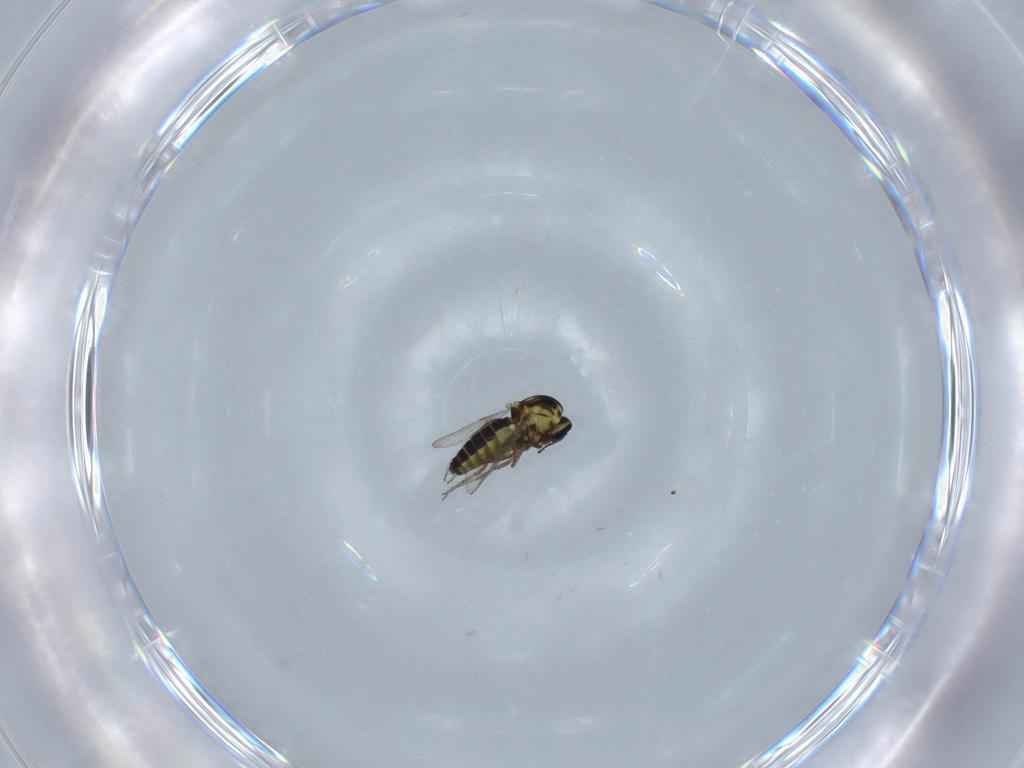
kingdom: Animalia
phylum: Arthropoda
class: Insecta
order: Diptera
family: Ceratopogonidae
